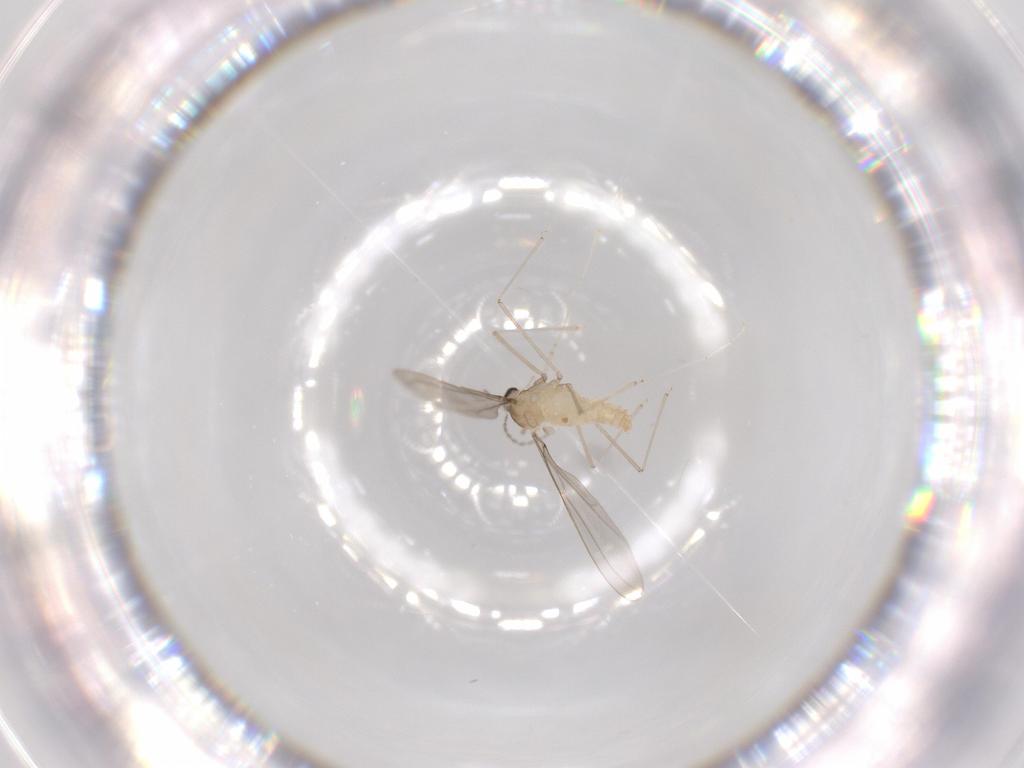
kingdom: Animalia
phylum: Arthropoda
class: Insecta
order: Diptera
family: Cecidomyiidae
